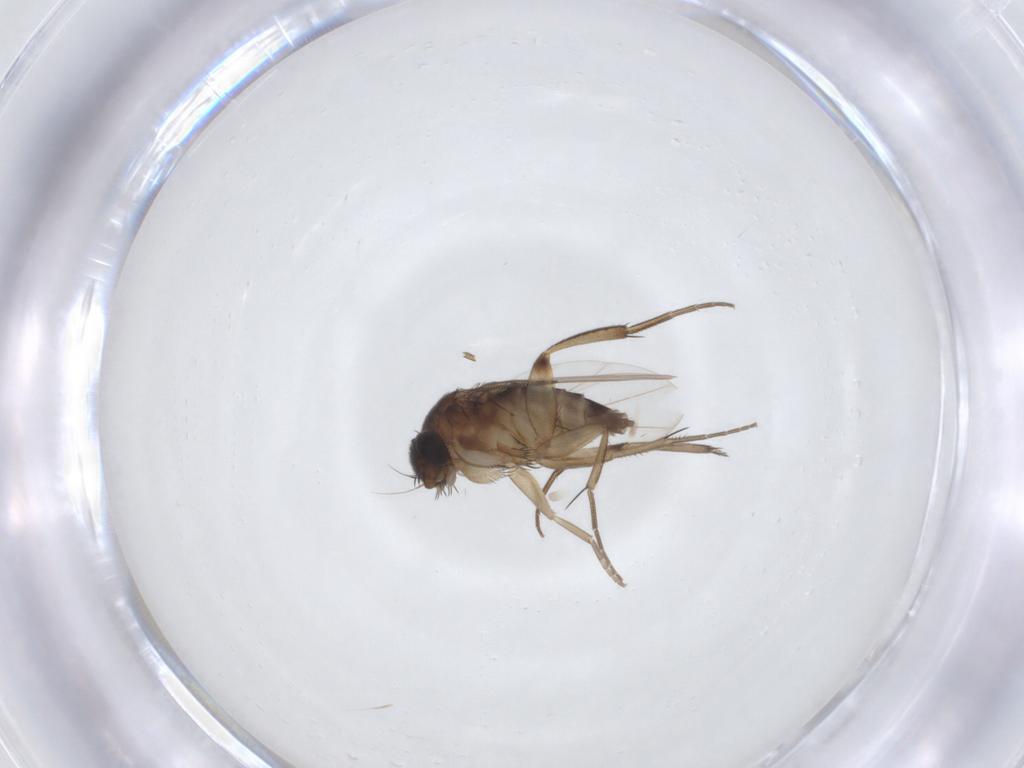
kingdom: Animalia
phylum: Arthropoda
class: Insecta
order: Diptera
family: Phoridae
